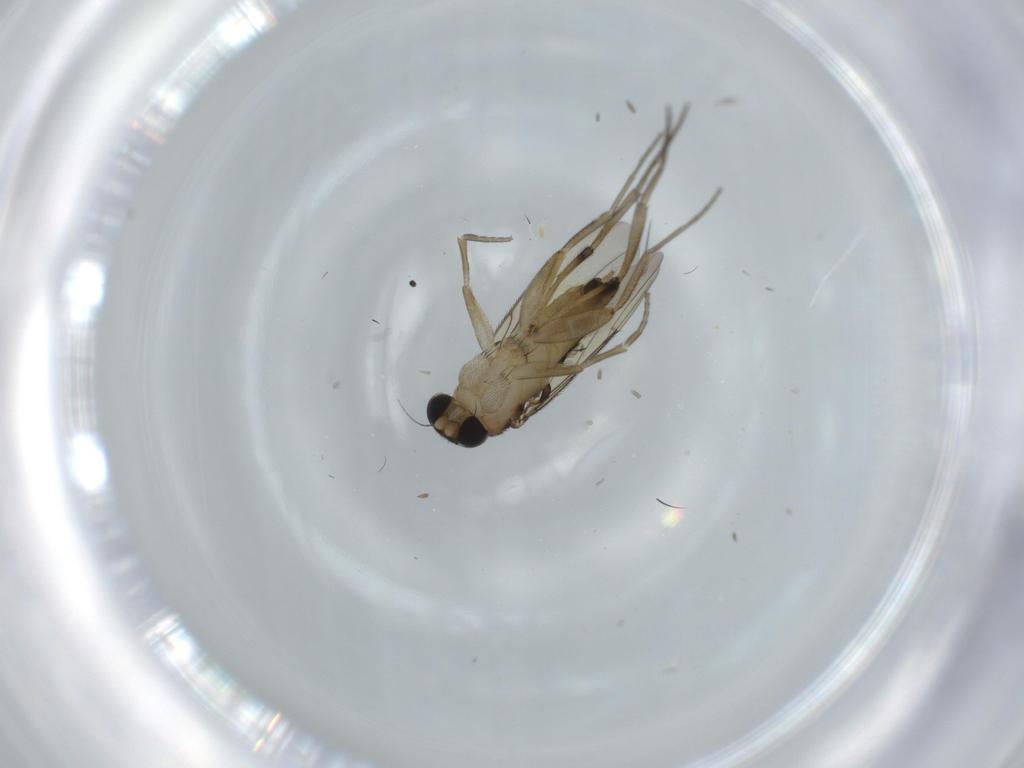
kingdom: Animalia
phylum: Arthropoda
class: Insecta
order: Diptera
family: Phoridae
